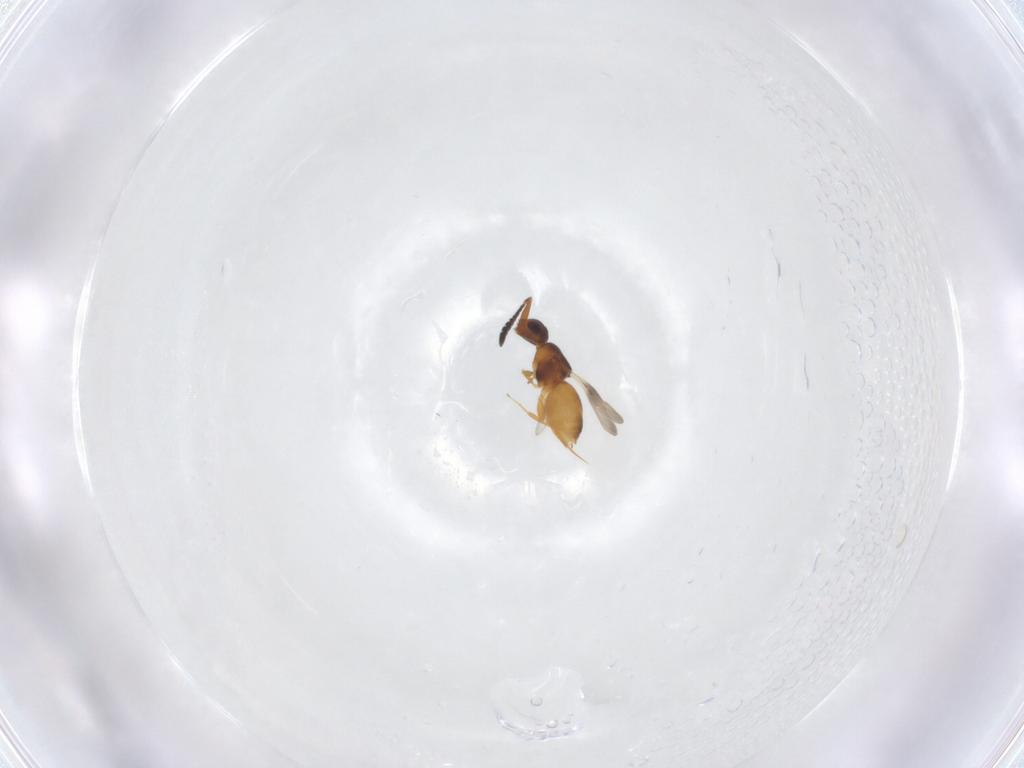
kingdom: Animalia
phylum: Arthropoda
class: Insecta
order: Hymenoptera
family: Ceraphronidae
